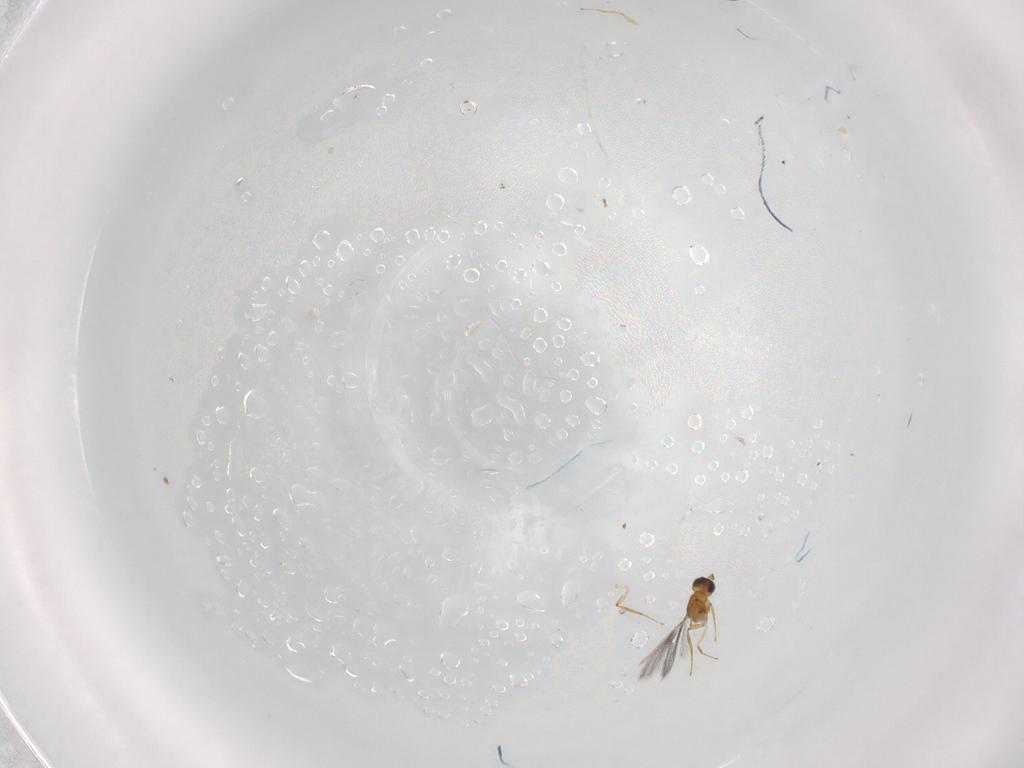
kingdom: Animalia
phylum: Arthropoda
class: Insecta
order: Hymenoptera
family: Mymaridae
